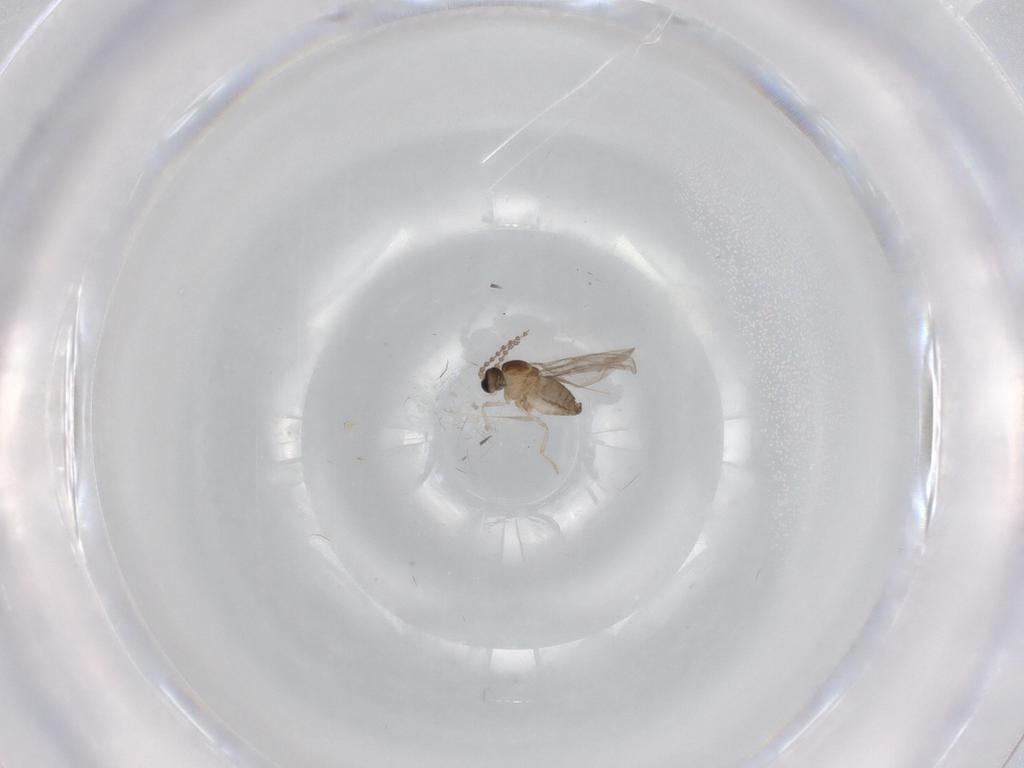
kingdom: Animalia
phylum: Arthropoda
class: Insecta
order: Diptera
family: Cecidomyiidae
